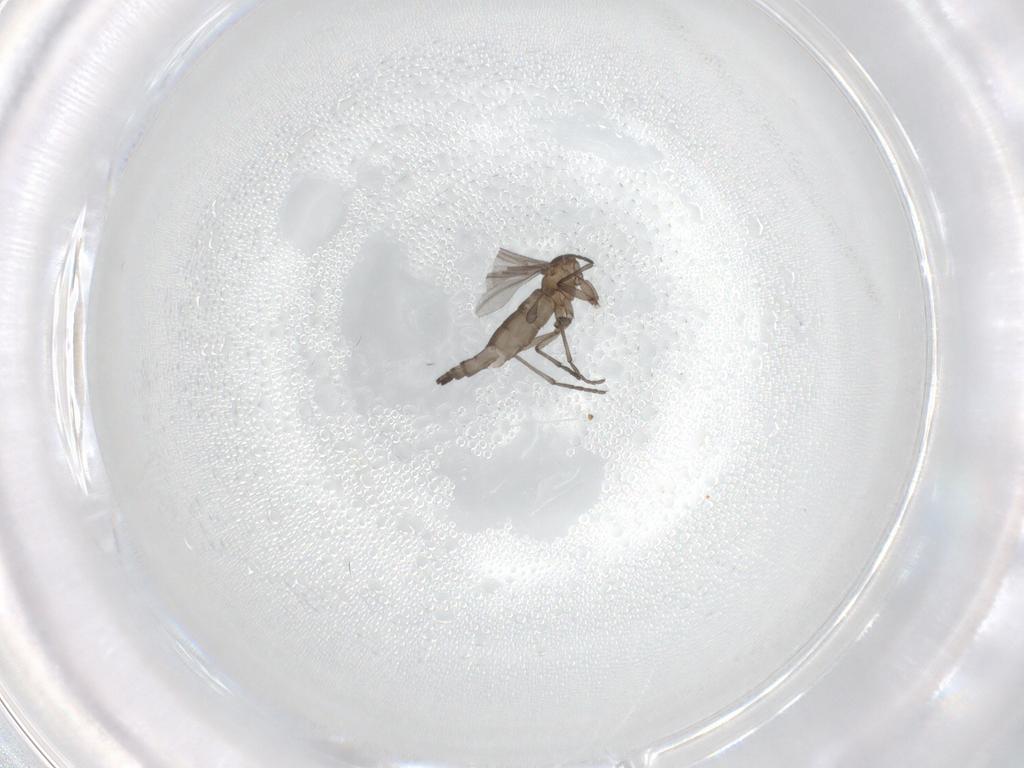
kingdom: Animalia
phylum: Arthropoda
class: Insecta
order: Diptera
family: Sciaridae
